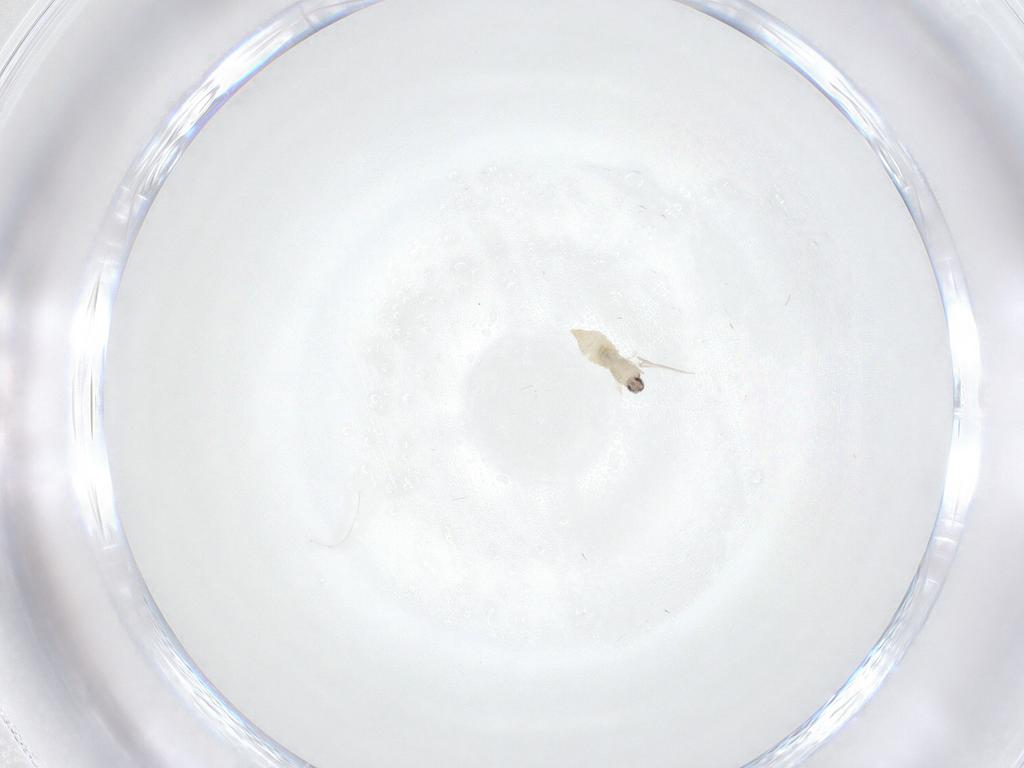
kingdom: Animalia
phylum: Arthropoda
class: Insecta
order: Diptera
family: Cecidomyiidae
